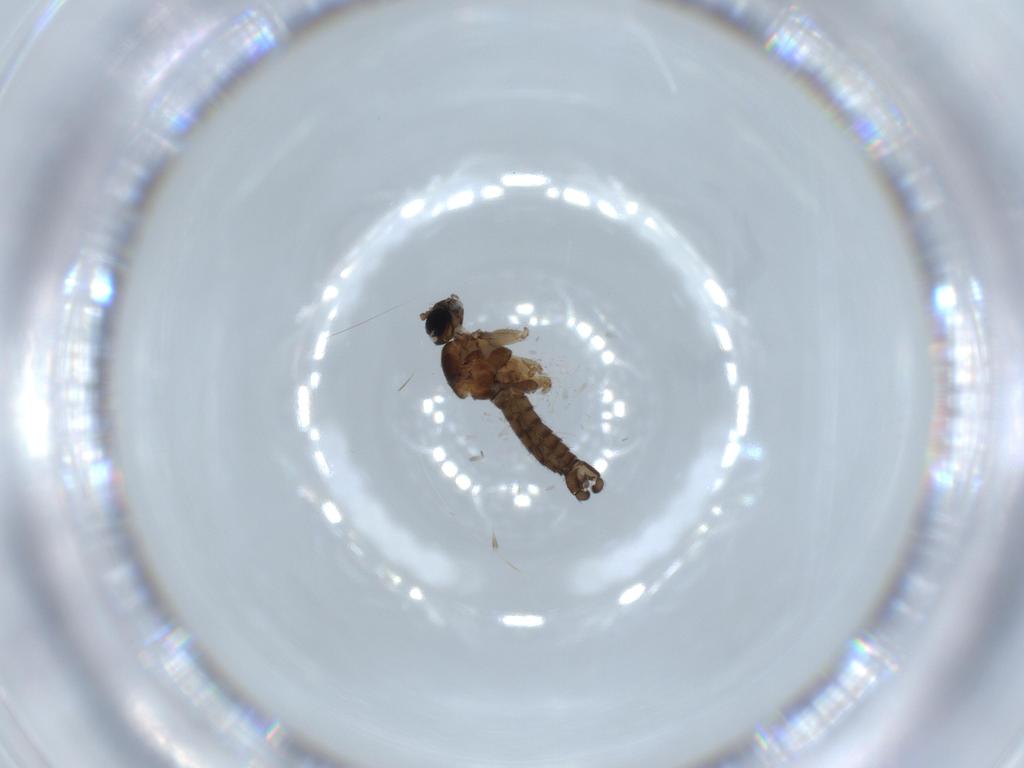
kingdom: Animalia
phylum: Arthropoda
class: Insecta
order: Diptera
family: Sciaridae
